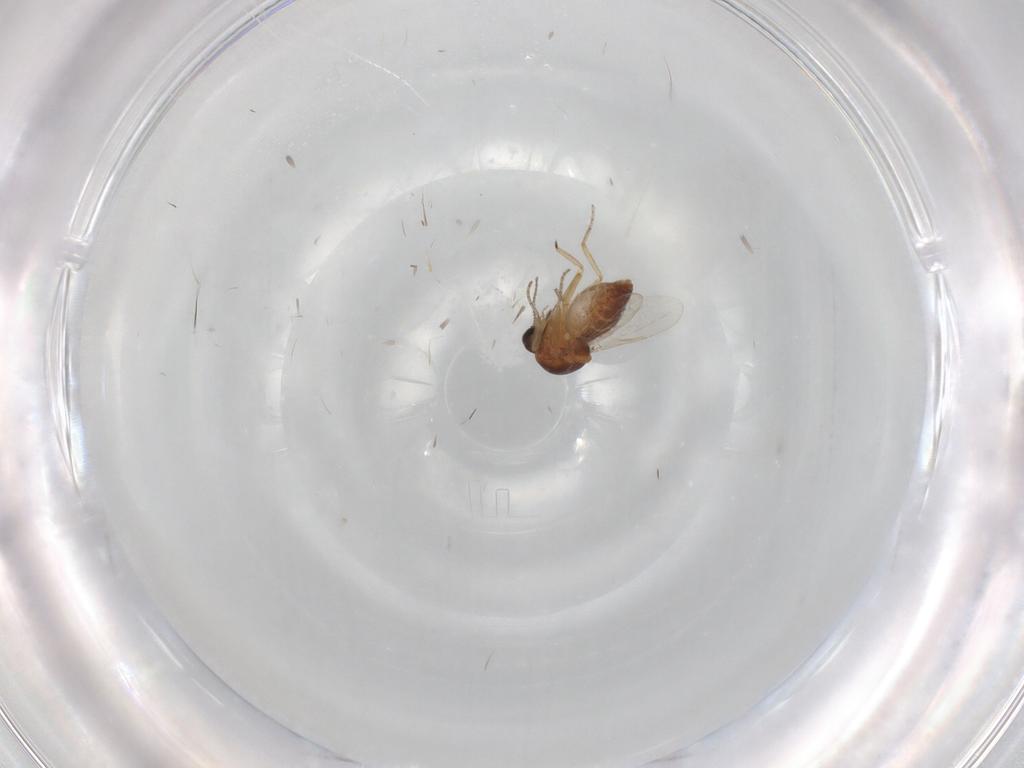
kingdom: Animalia
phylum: Arthropoda
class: Insecta
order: Diptera
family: Ceratopogonidae
